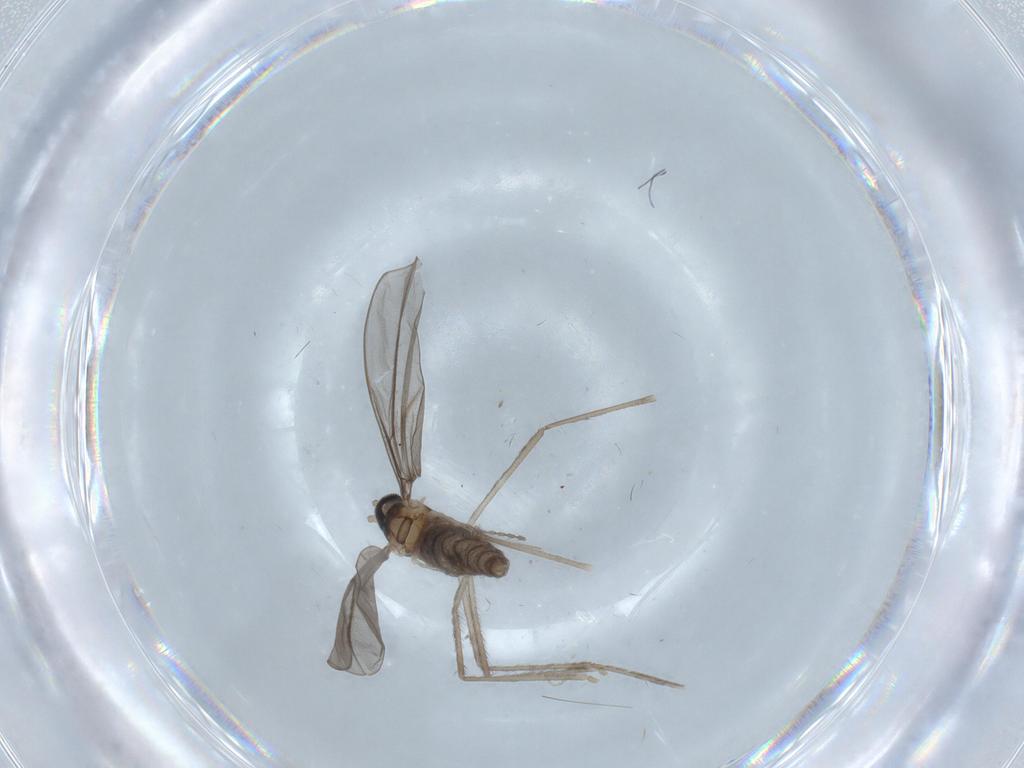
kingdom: Animalia
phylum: Arthropoda
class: Insecta
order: Diptera
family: Cecidomyiidae
